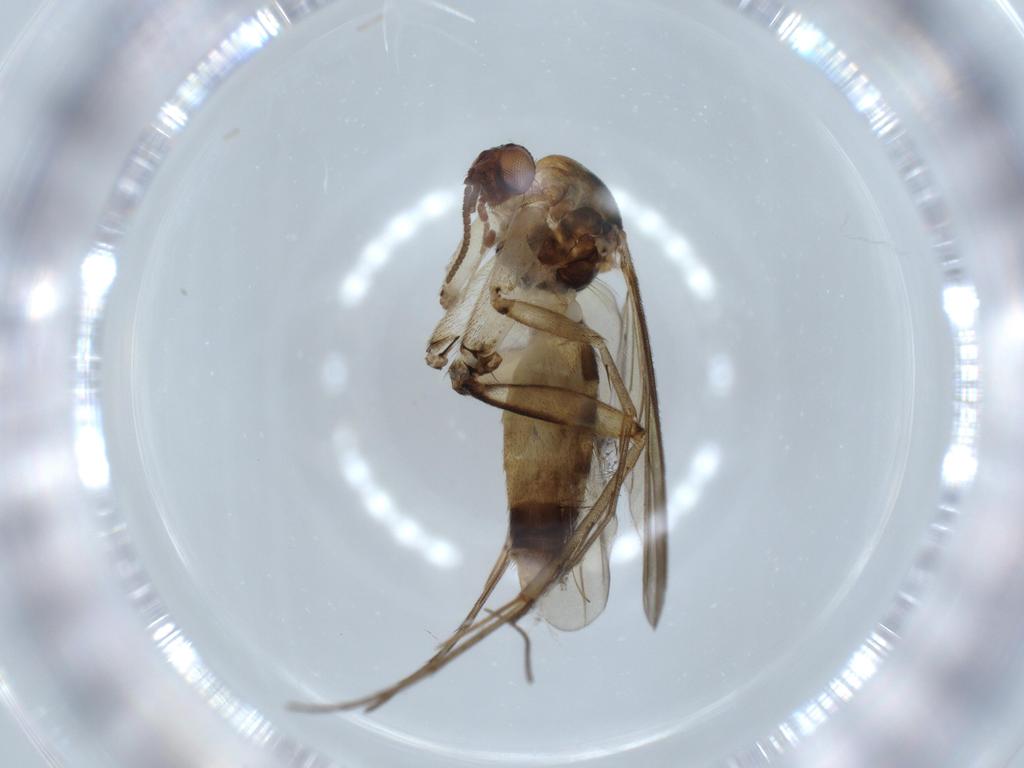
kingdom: Animalia
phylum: Arthropoda
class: Insecta
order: Diptera
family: Sciaridae
